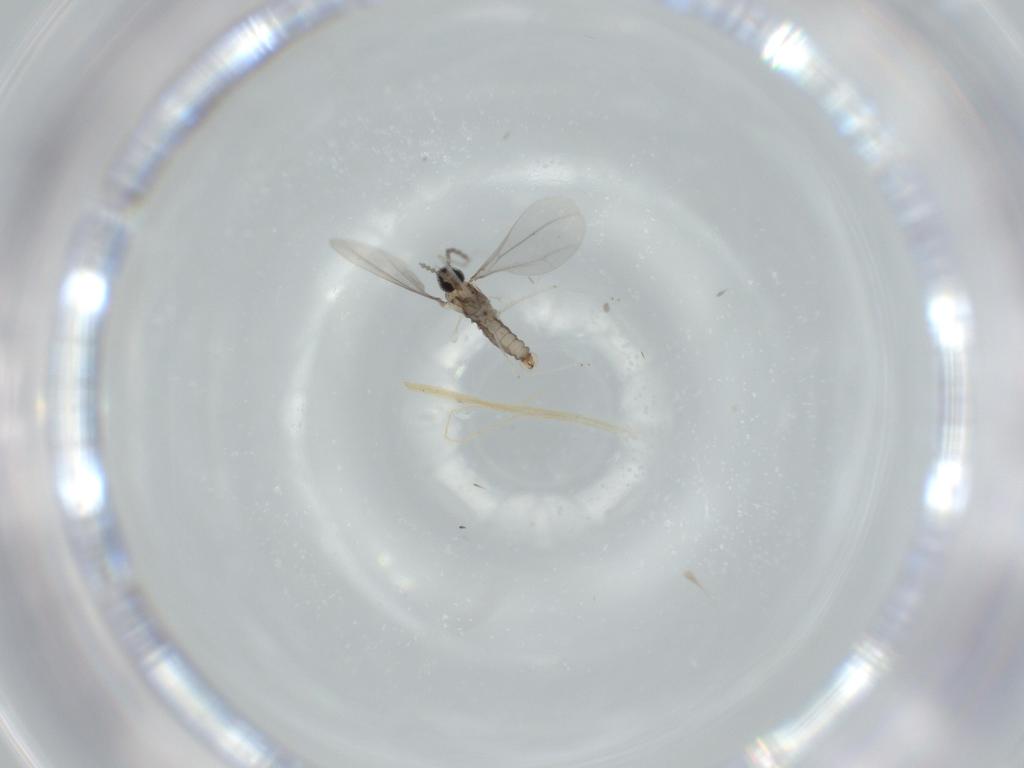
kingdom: Animalia
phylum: Arthropoda
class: Insecta
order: Diptera
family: Cecidomyiidae
